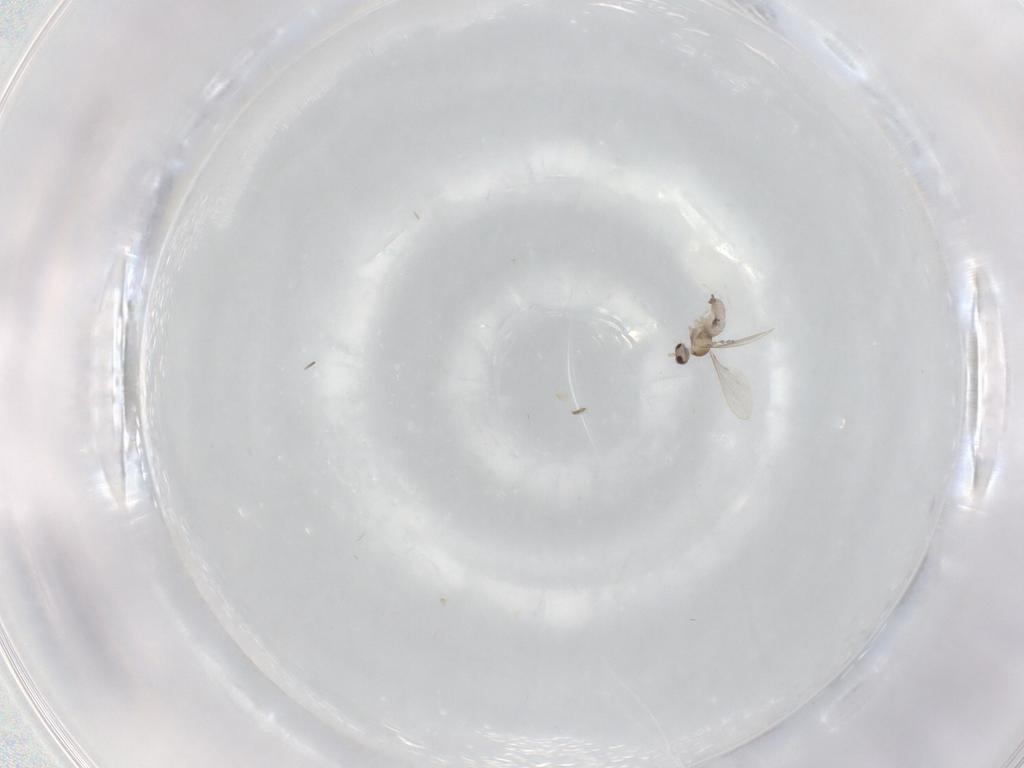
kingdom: Animalia
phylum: Arthropoda
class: Insecta
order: Diptera
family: Cecidomyiidae
